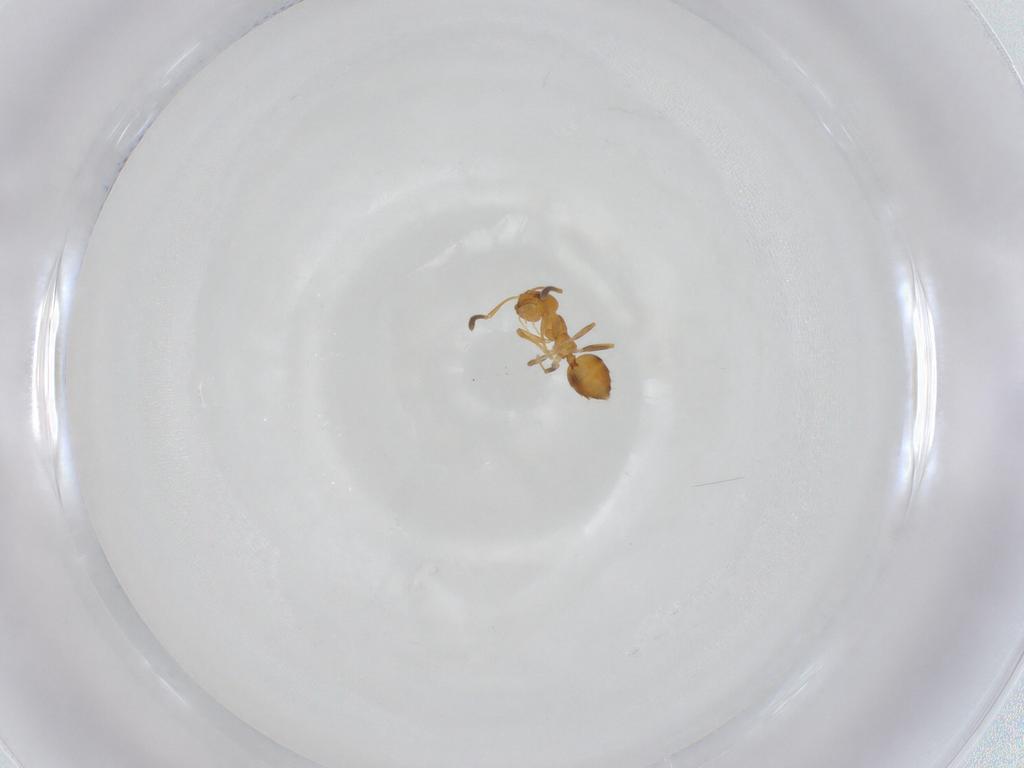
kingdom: Animalia
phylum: Arthropoda
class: Insecta
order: Hymenoptera
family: Formicidae
